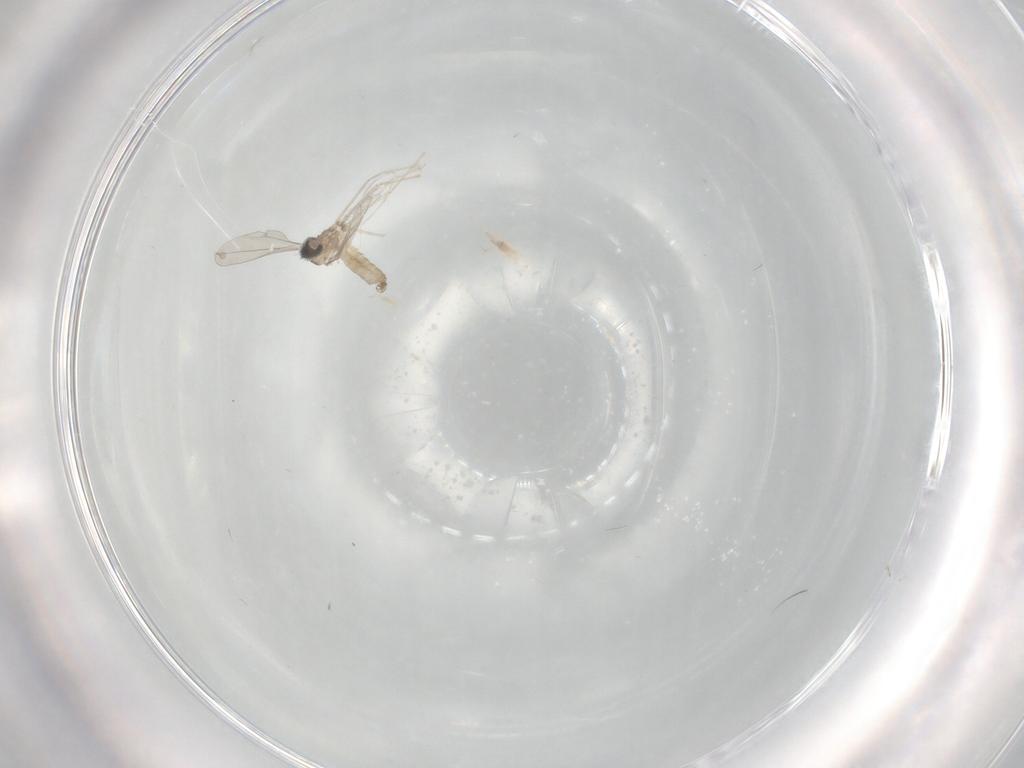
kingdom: Animalia
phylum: Arthropoda
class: Insecta
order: Diptera
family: Cecidomyiidae
